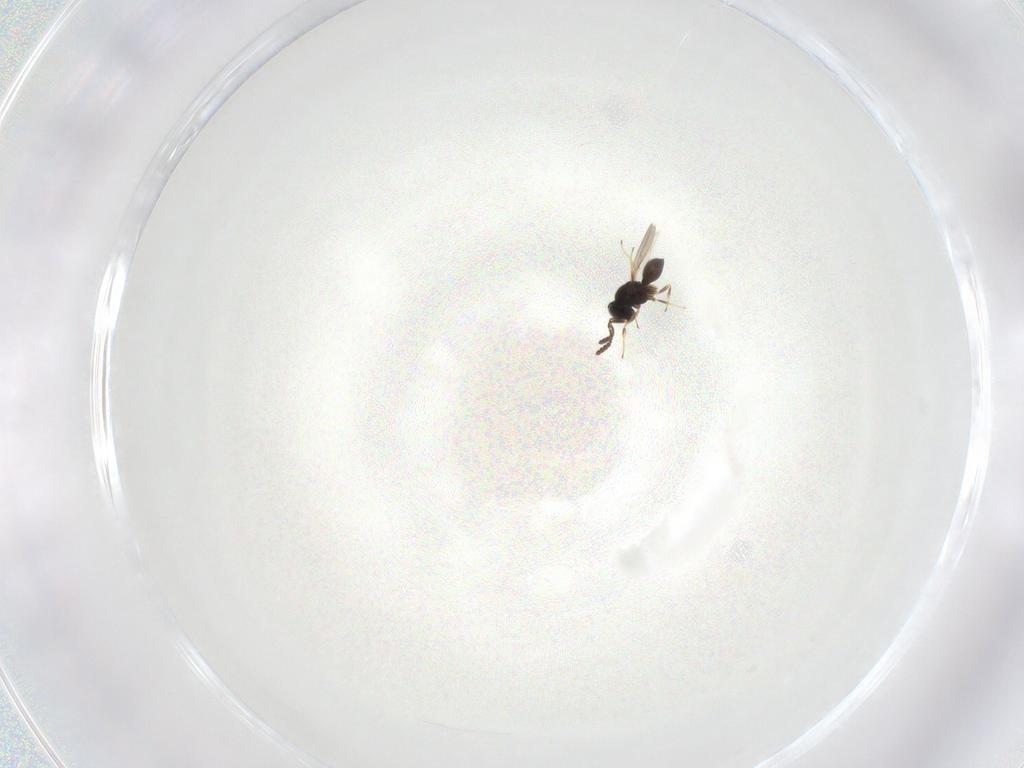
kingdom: Animalia
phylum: Arthropoda
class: Insecta
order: Hymenoptera
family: Scelionidae
